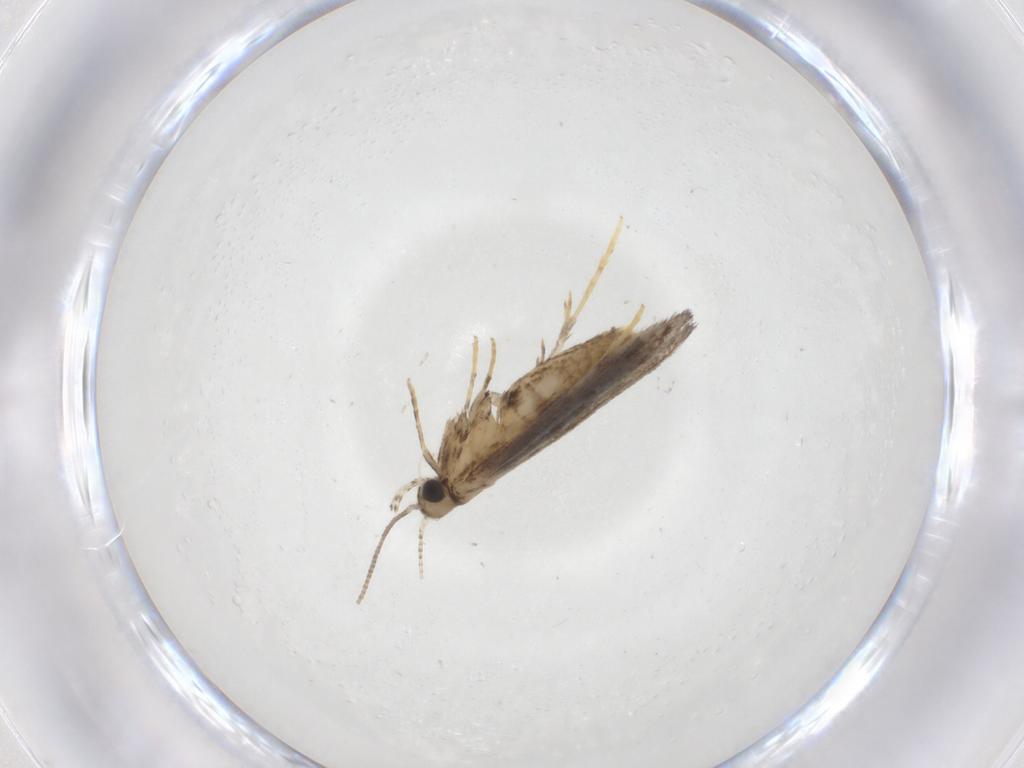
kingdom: Animalia
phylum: Arthropoda
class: Insecta
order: Lepidoptera
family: Gracillariidae
